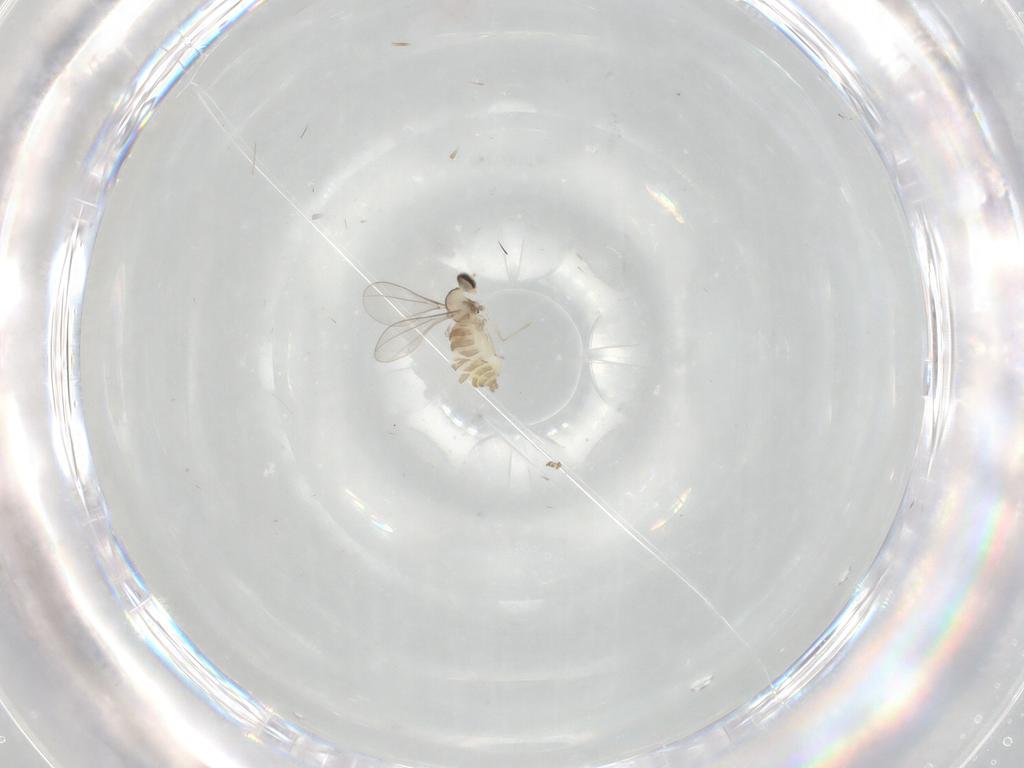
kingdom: Animalia
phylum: Arthropoda
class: Insecta
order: Diptera
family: Cecidomyiidae
